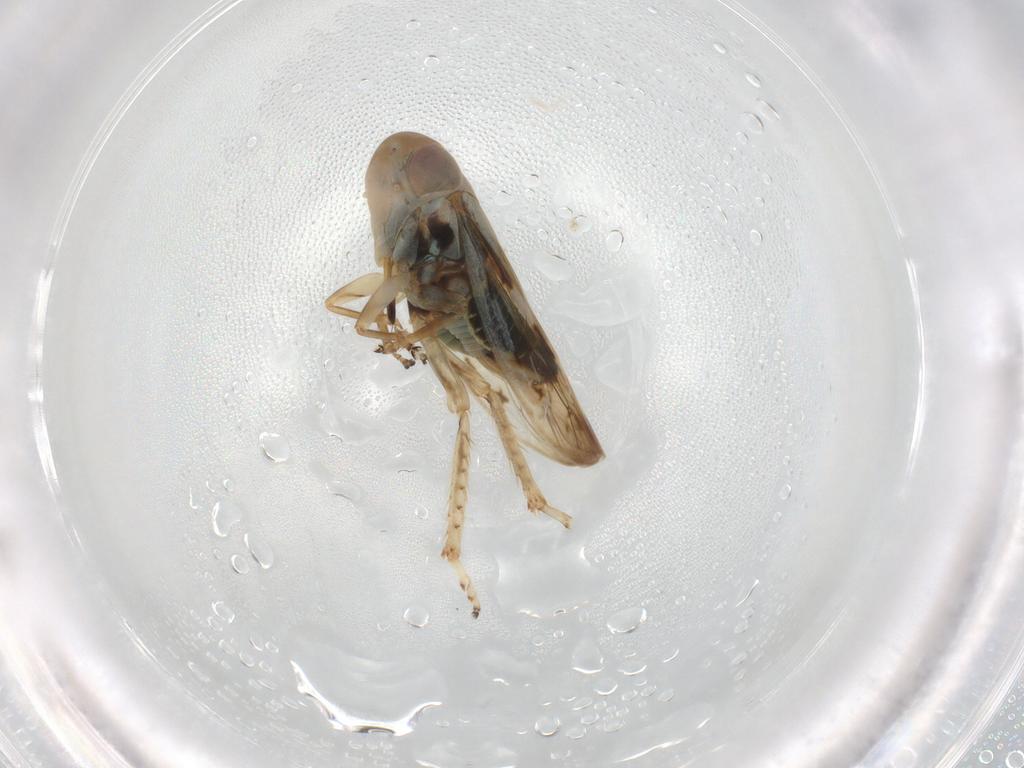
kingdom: Animalia
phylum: Arthropoda
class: Insecta
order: Hemiptera
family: Cicadellidae
